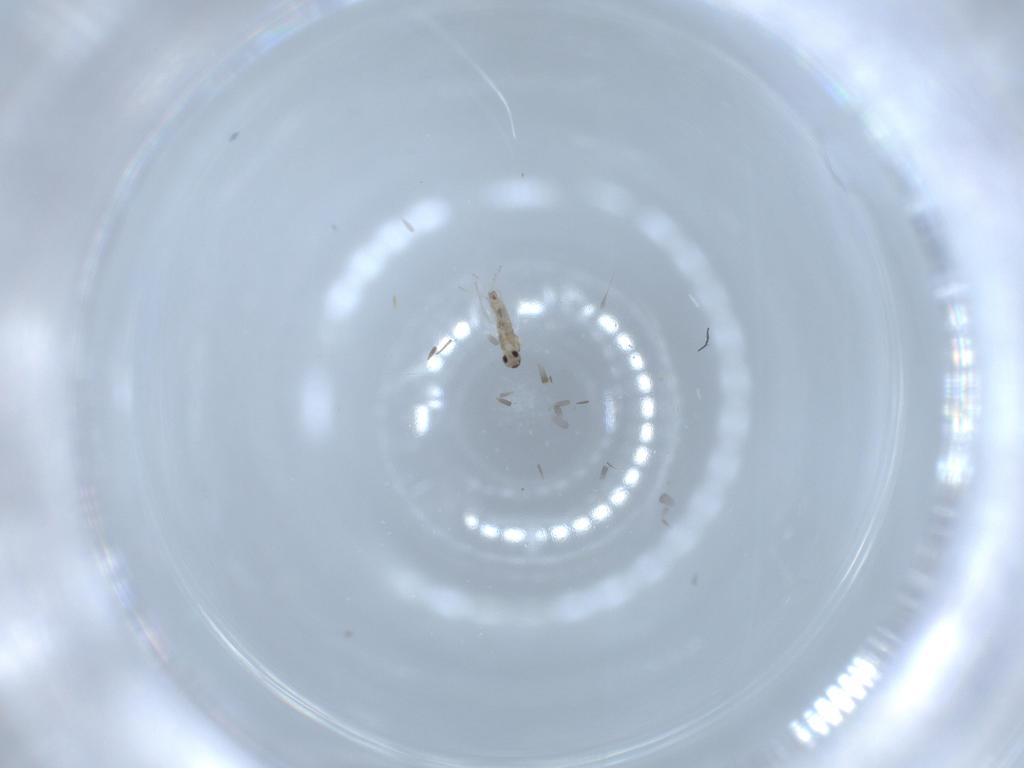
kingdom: Animalia
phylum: Arthropoda
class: Insecta
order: Diptera
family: Cecidomyiidae
